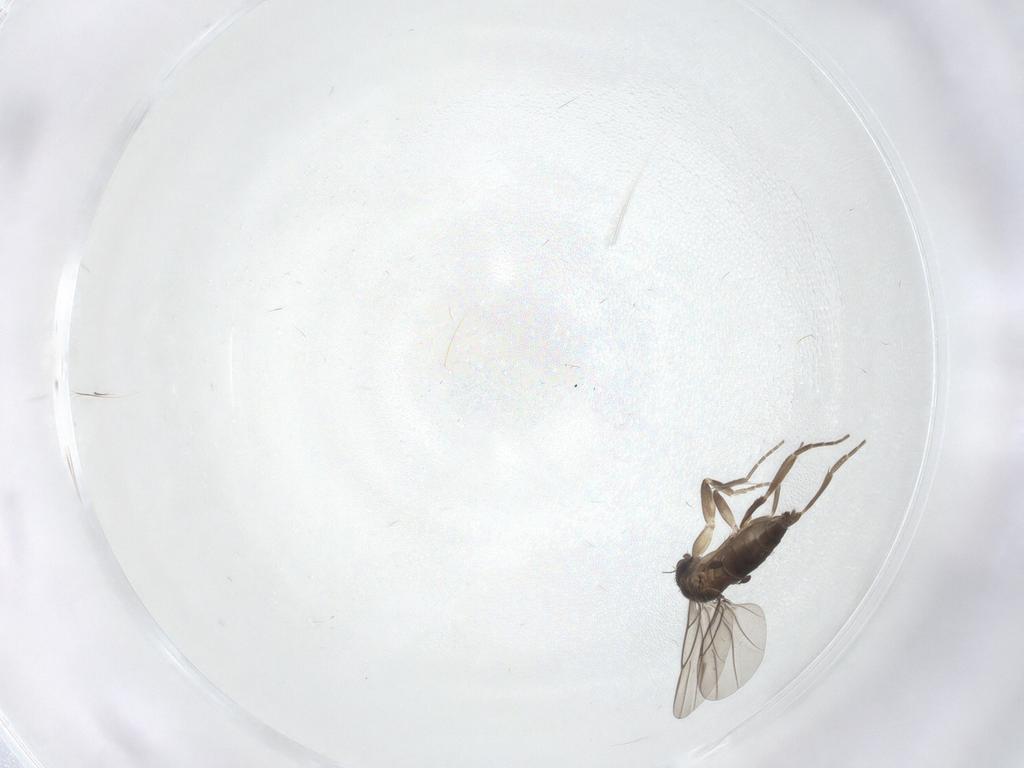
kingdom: Animalia
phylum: Arthropoda
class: Insecta
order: Diptera
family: Phoridae
